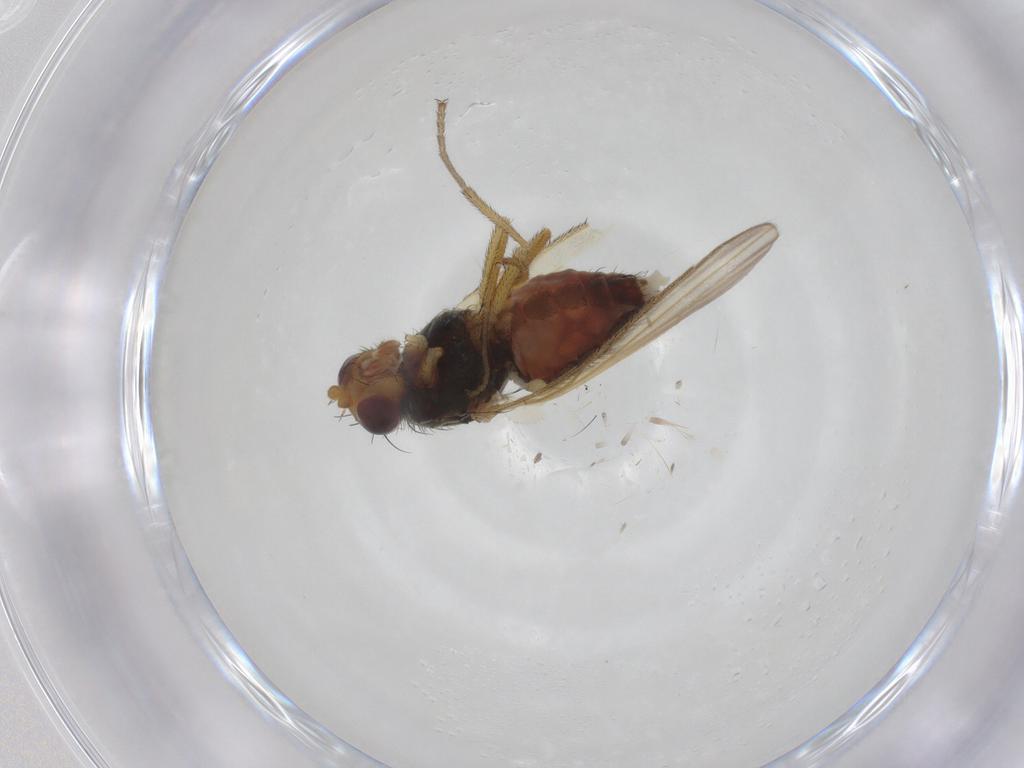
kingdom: Animalia
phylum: Arthropoda
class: Insecta
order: Diptera
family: Heleomyzidae
